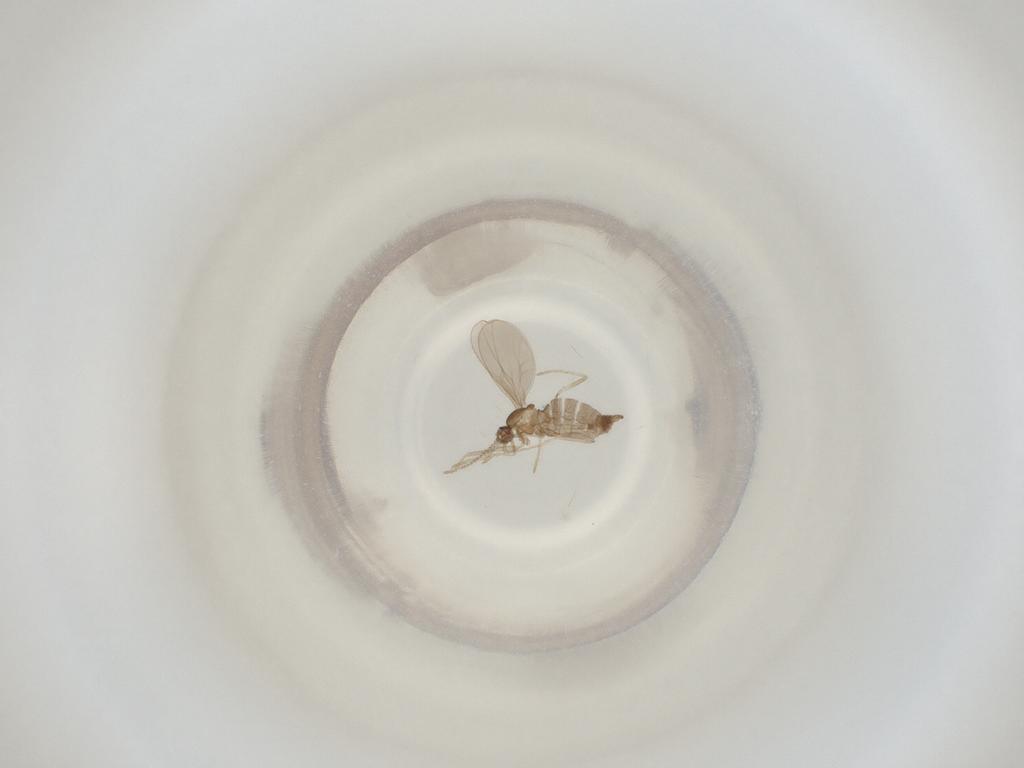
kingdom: Animalia
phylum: Arthropoda
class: Insecta
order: Diptera
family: Cecidomyiidae
